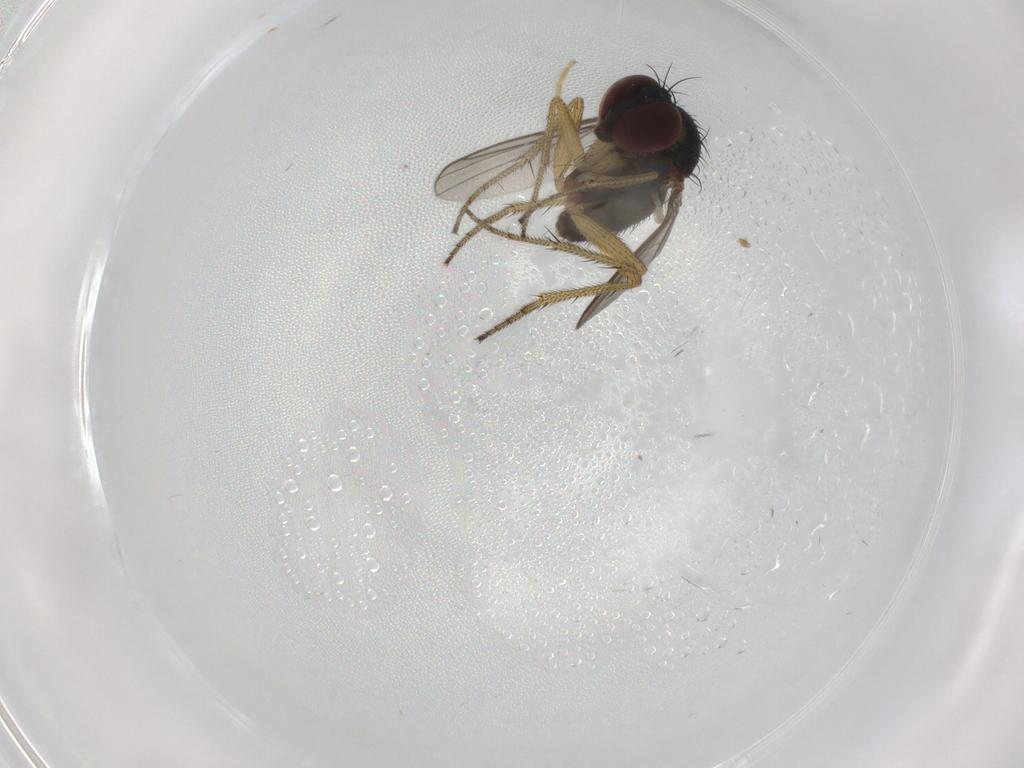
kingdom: Animalia
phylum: Arthropoda
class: Insecta
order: Diptera
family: Dolichopodidae
